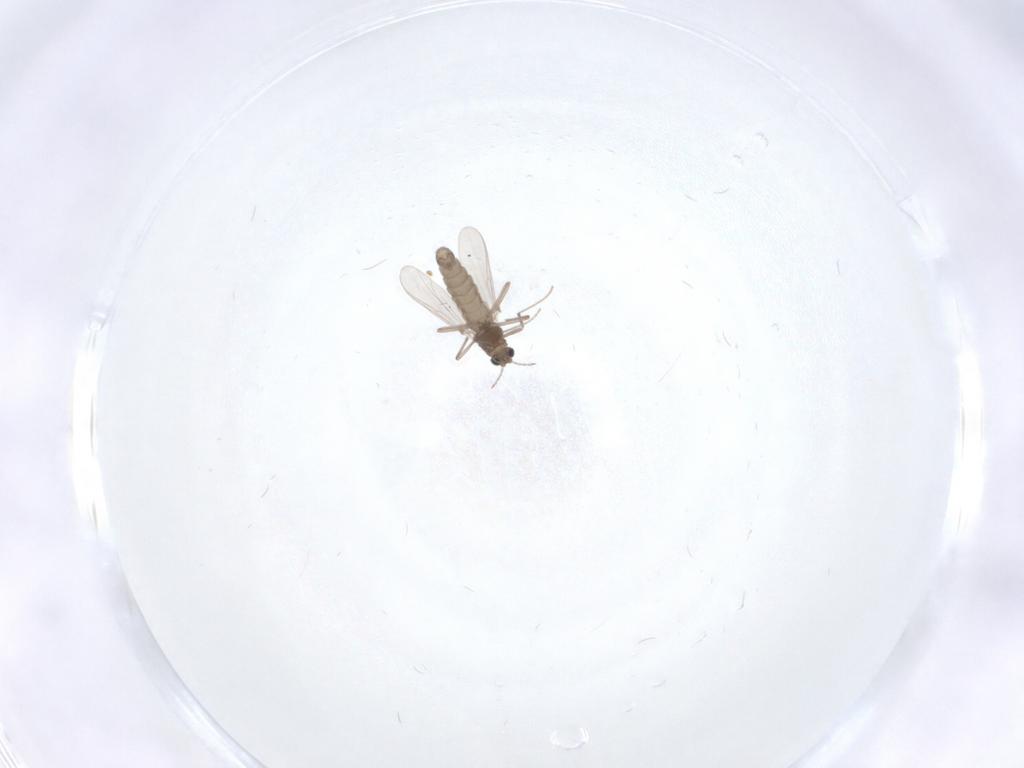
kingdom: Animalia
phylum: Arthropoda
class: Insecta
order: Diptera
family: Chironomidae
